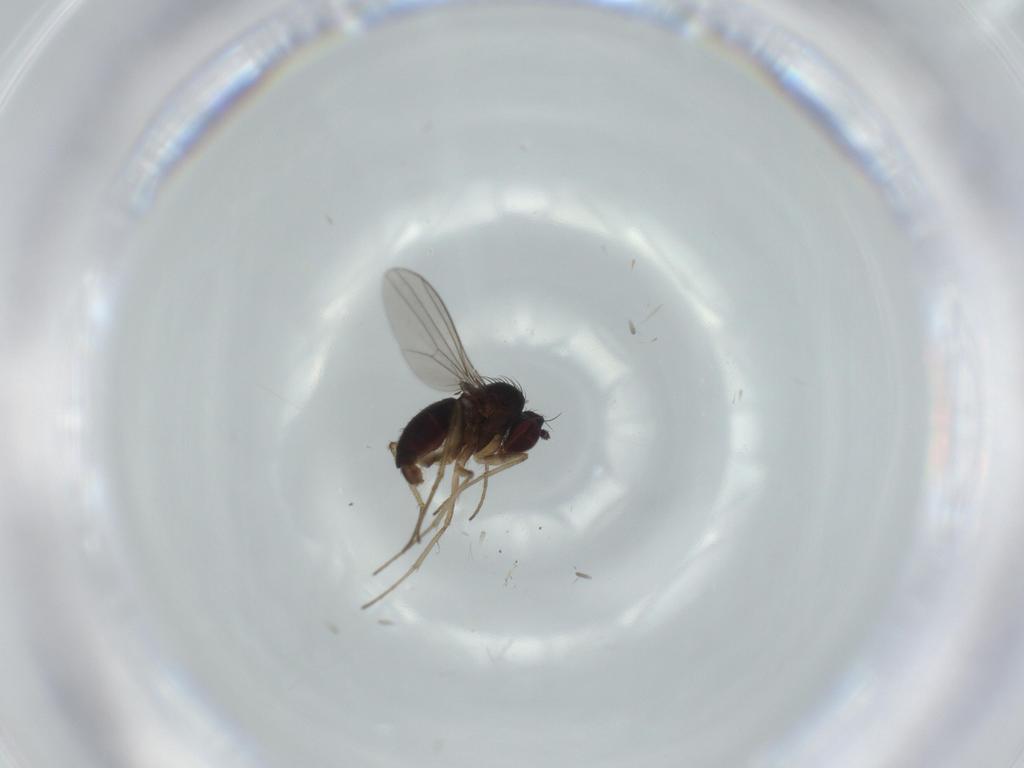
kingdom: Animalia
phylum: Arthropoda
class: Insecta
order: Diptera
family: Dolichopodidae
